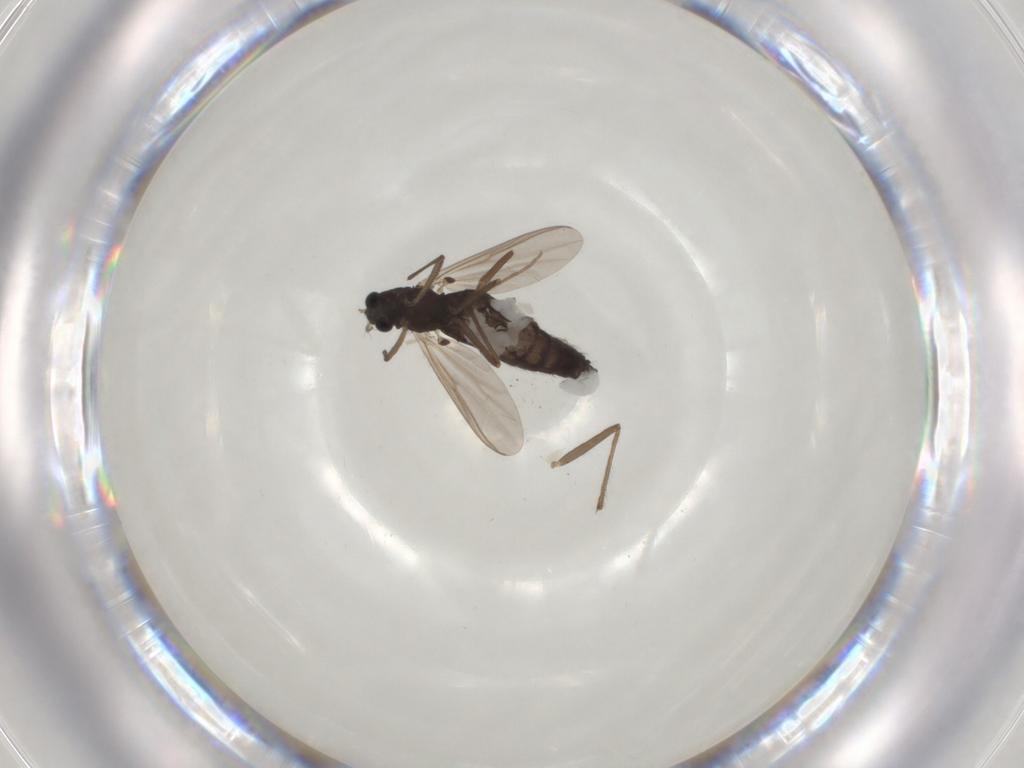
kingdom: Animalia
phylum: Arthropoda
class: Insecta
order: Diptera
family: Chironomidae
